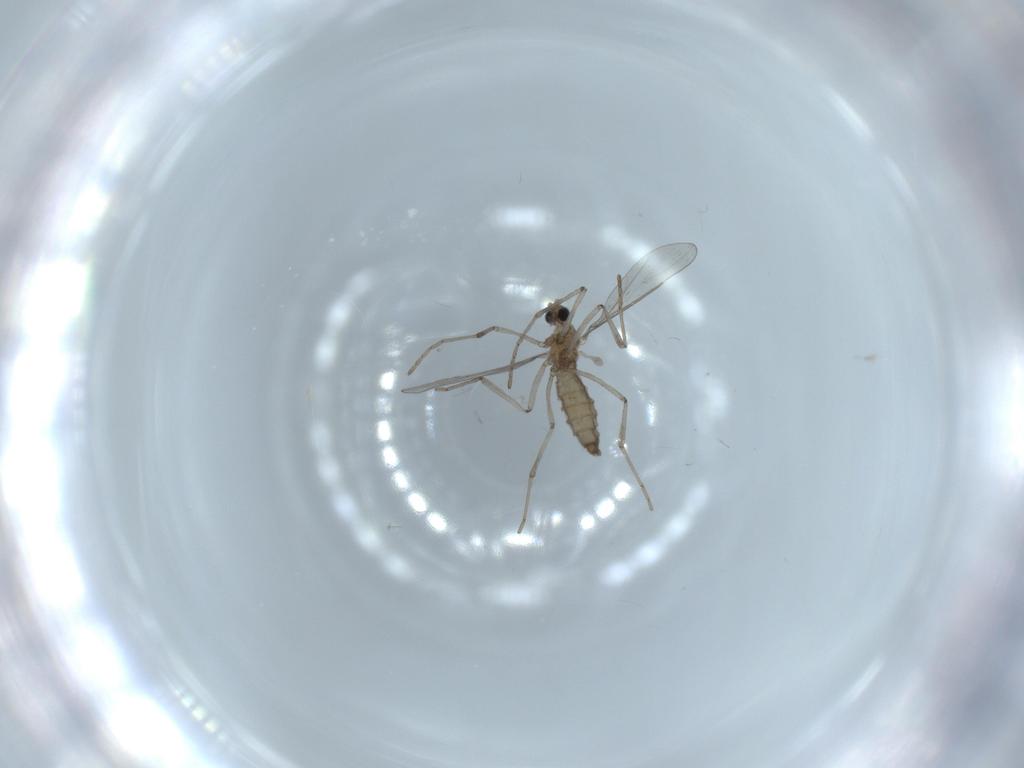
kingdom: Animalia
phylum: Arthropoda
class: Insecta
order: Diptera
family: Cecidomyiidae
